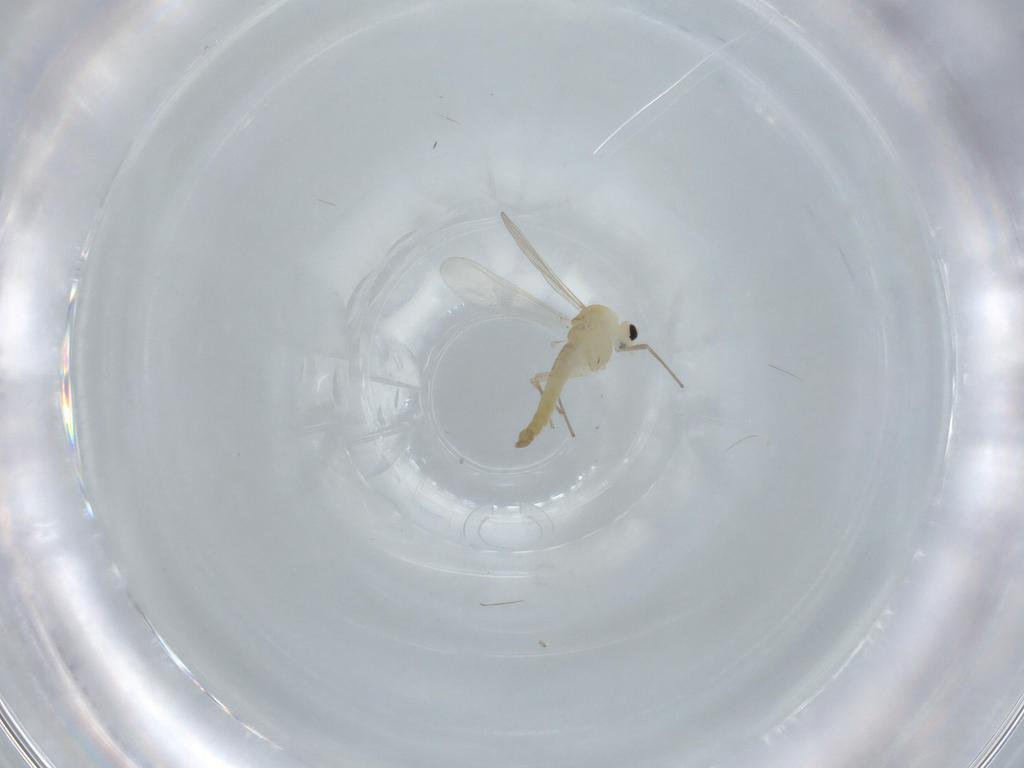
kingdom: Animalia
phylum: Arthropoda
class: Insecta
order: Diptera
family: Chironomidae
